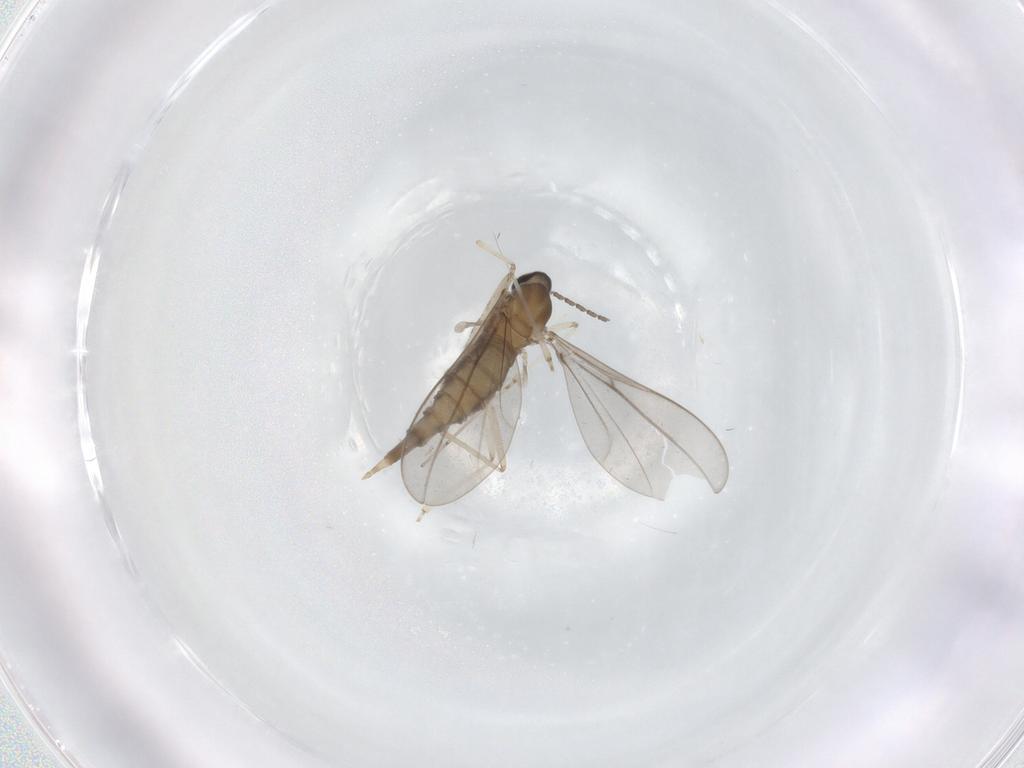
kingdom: Animalia
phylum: Arthropoda
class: Insecta
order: Diptera
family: Cecidomyiidae
